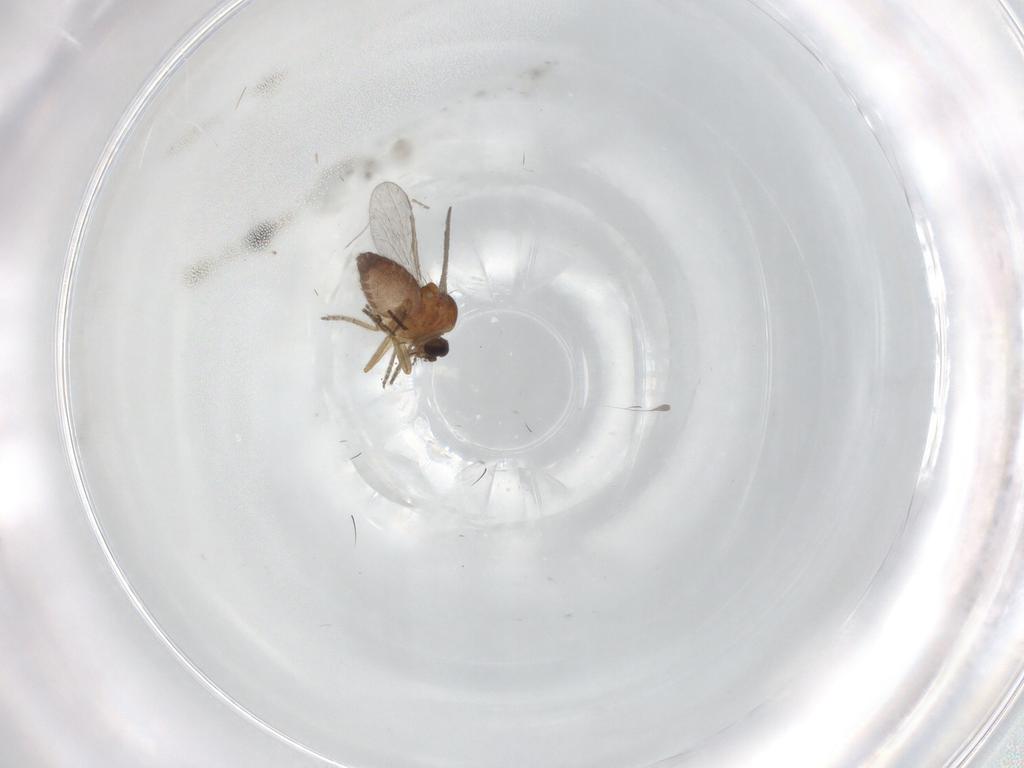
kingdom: Animalia
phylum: Arthropoda
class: Insecta
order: Diptera
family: Ceratopogonidae
